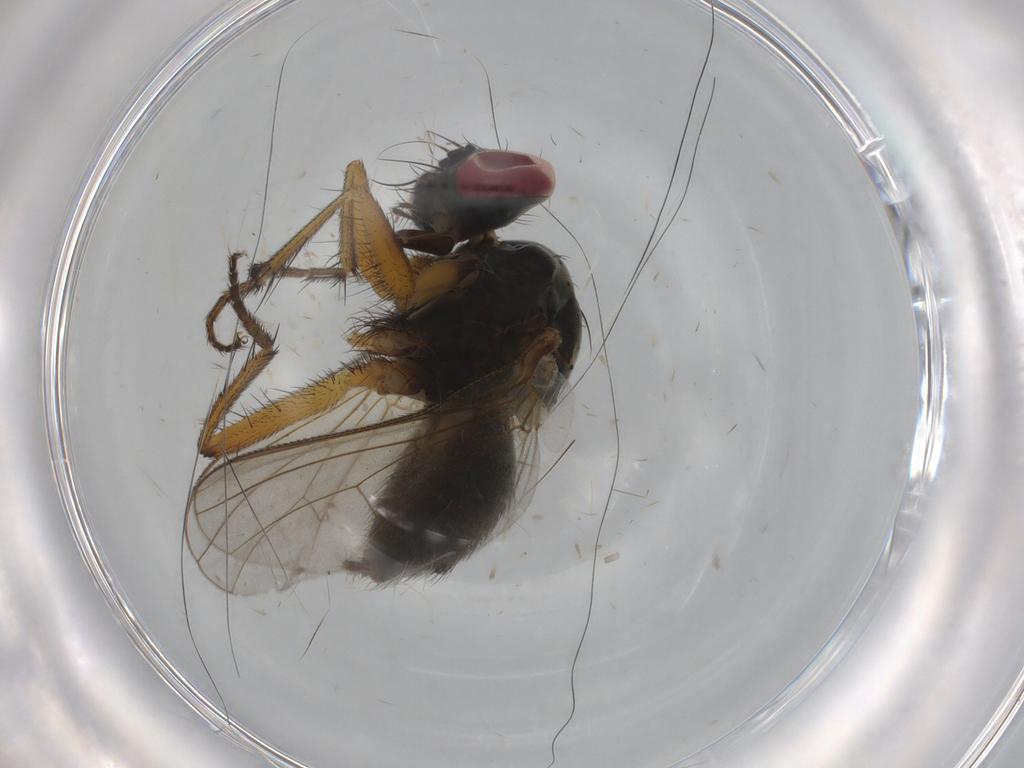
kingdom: Animalia
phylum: Arthropoda
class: Insecta
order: Diptera
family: Muscidae
